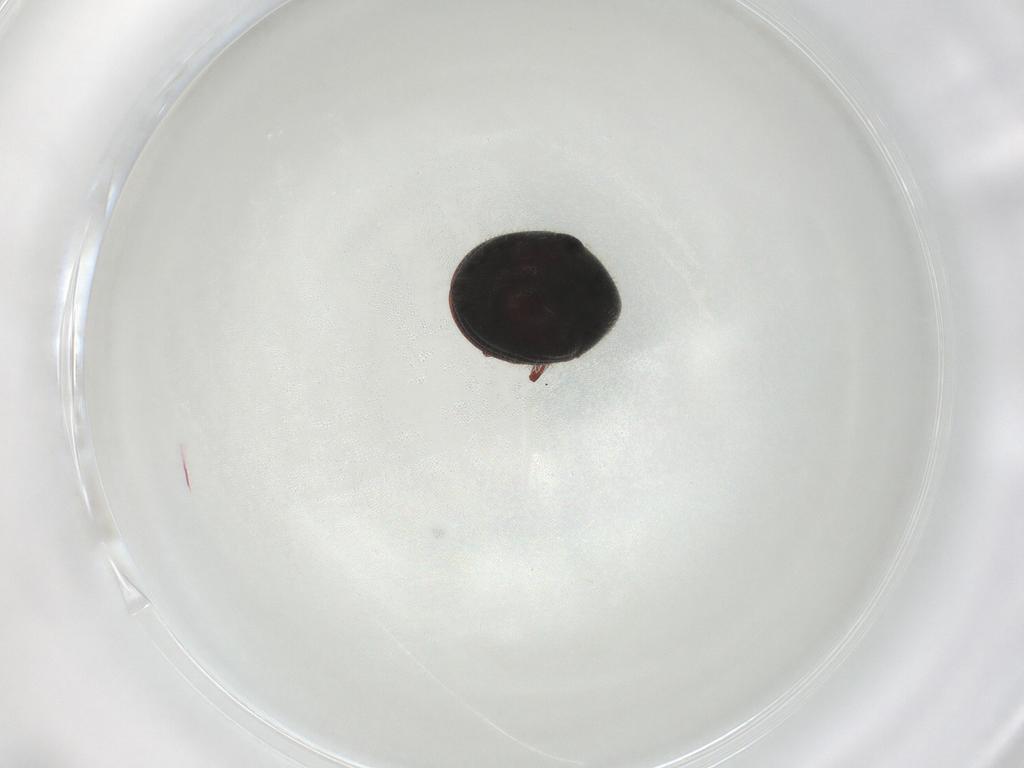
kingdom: Animalia
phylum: Arthropoda
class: Insecta
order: Coleoptera
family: Ptinidae
